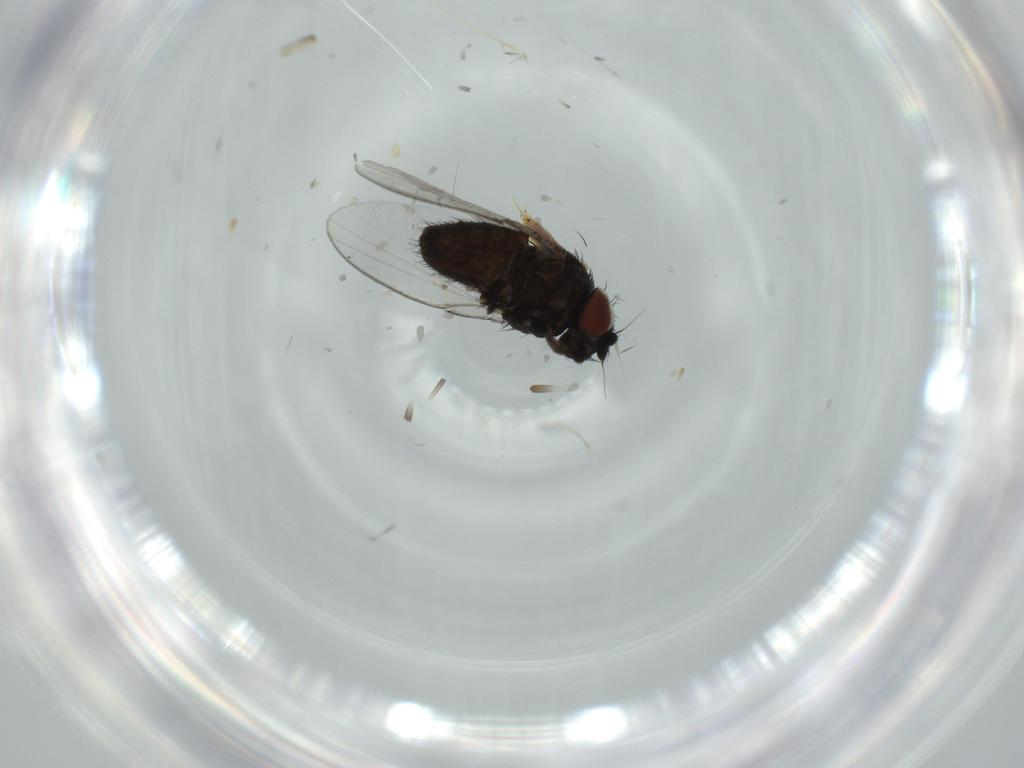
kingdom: Animalia
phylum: Arthropoda
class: Insecta
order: Diptera
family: Milichiidae
